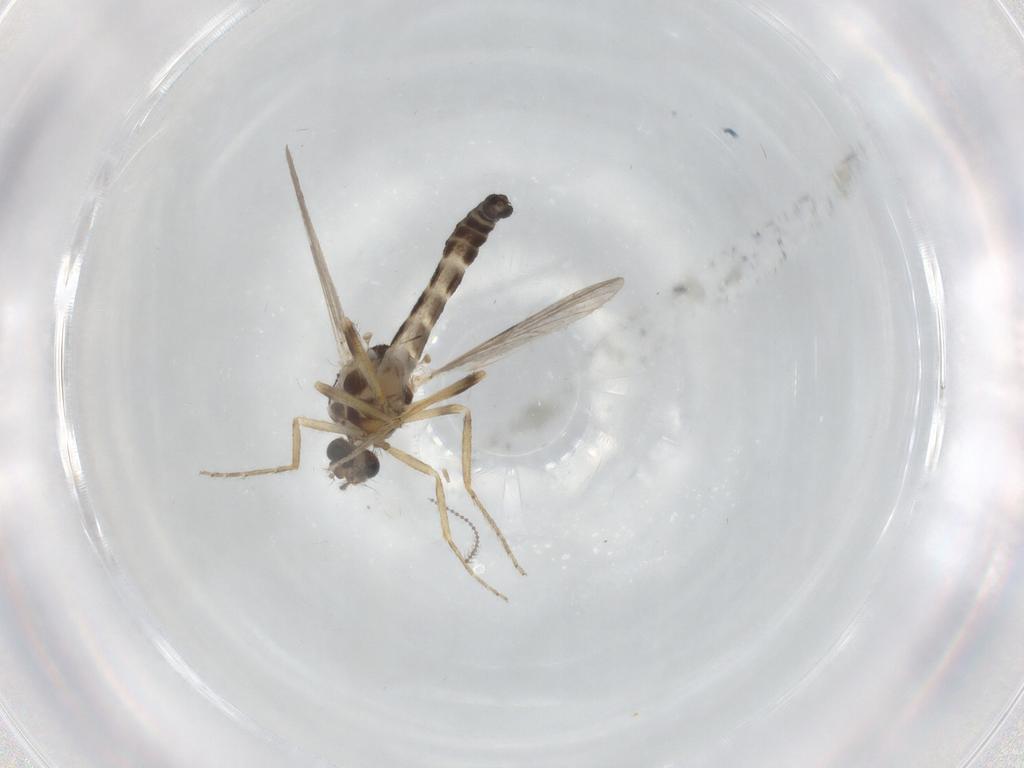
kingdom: Animalia
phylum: Arthropoda
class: Insecta
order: Diptera
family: Ceratopogonidae
